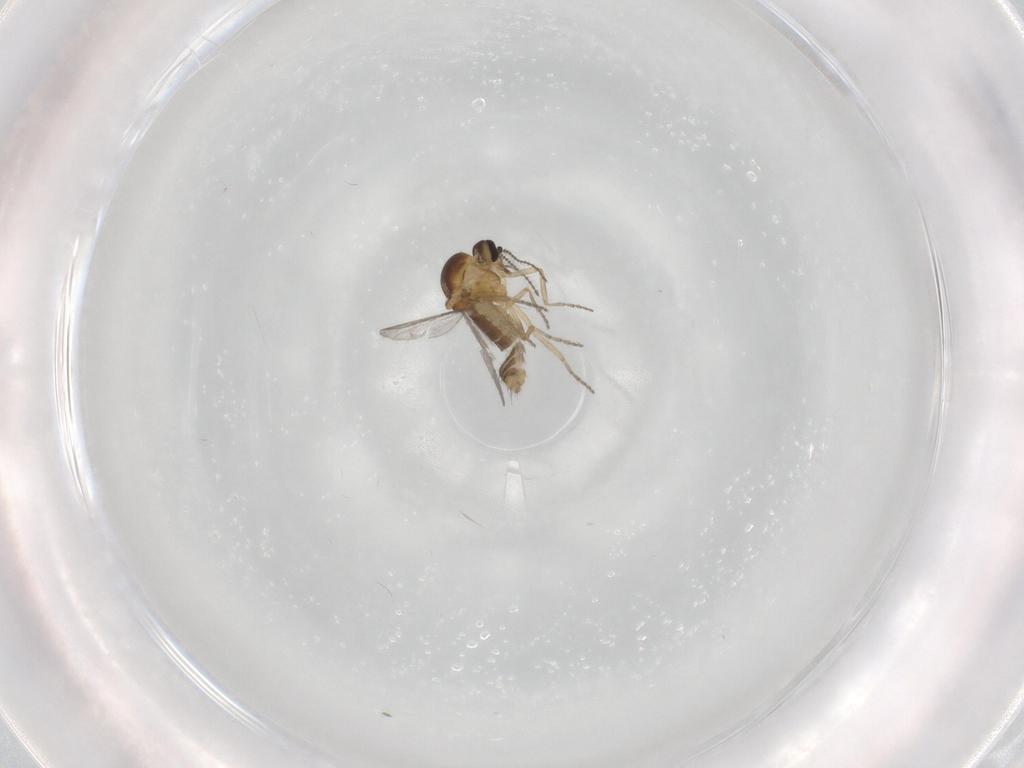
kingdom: Animalia
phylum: Arthropoda
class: Insecta
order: Diptera
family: Ceratopogonidae
